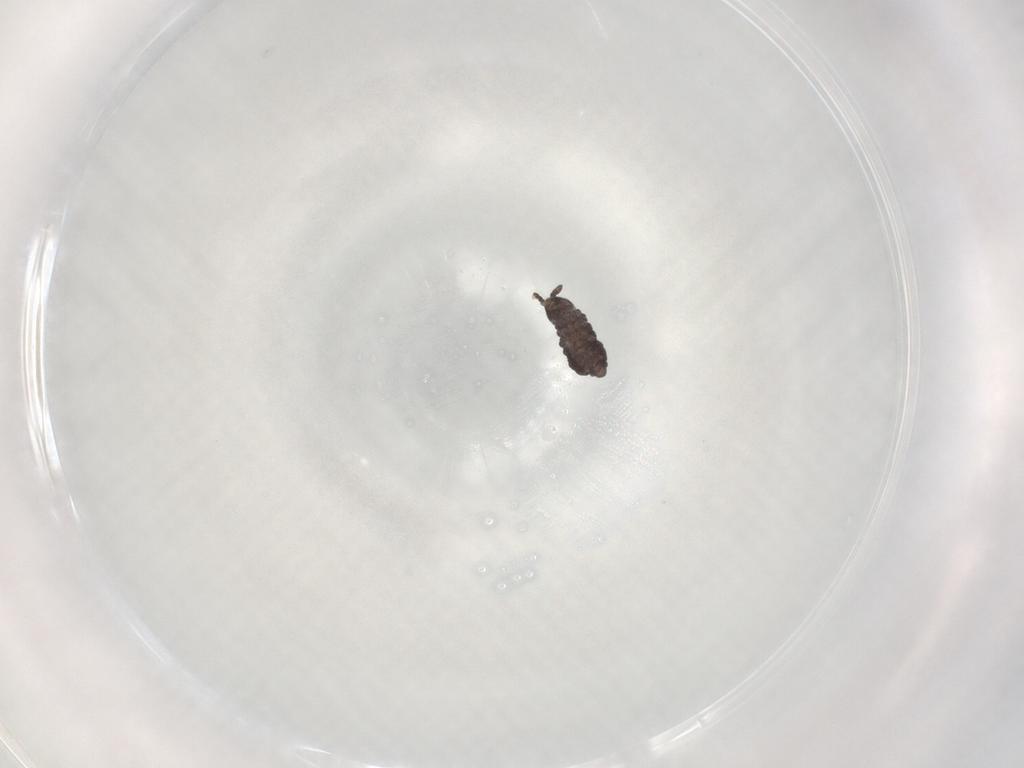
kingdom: Animalia
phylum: Arthropoda
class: Collembola
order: Poduromorpha
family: Hypogastruridae
